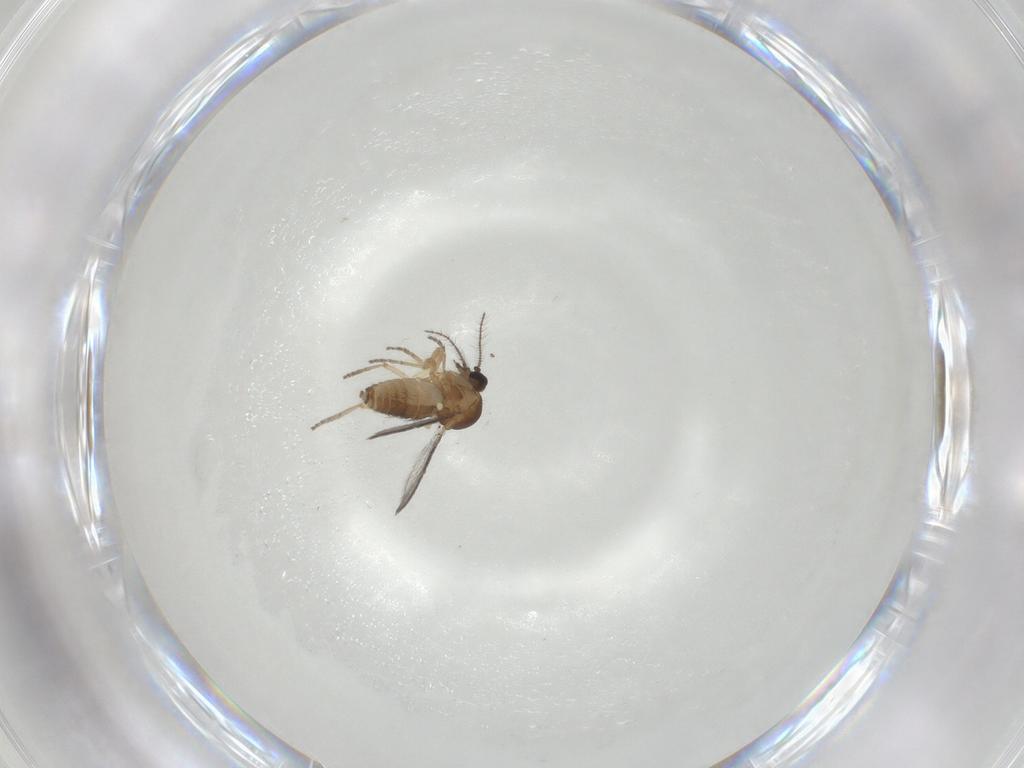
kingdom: Animalia
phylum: Arthropoda
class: Insecta
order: Diptera
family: Ceratopogonidae
